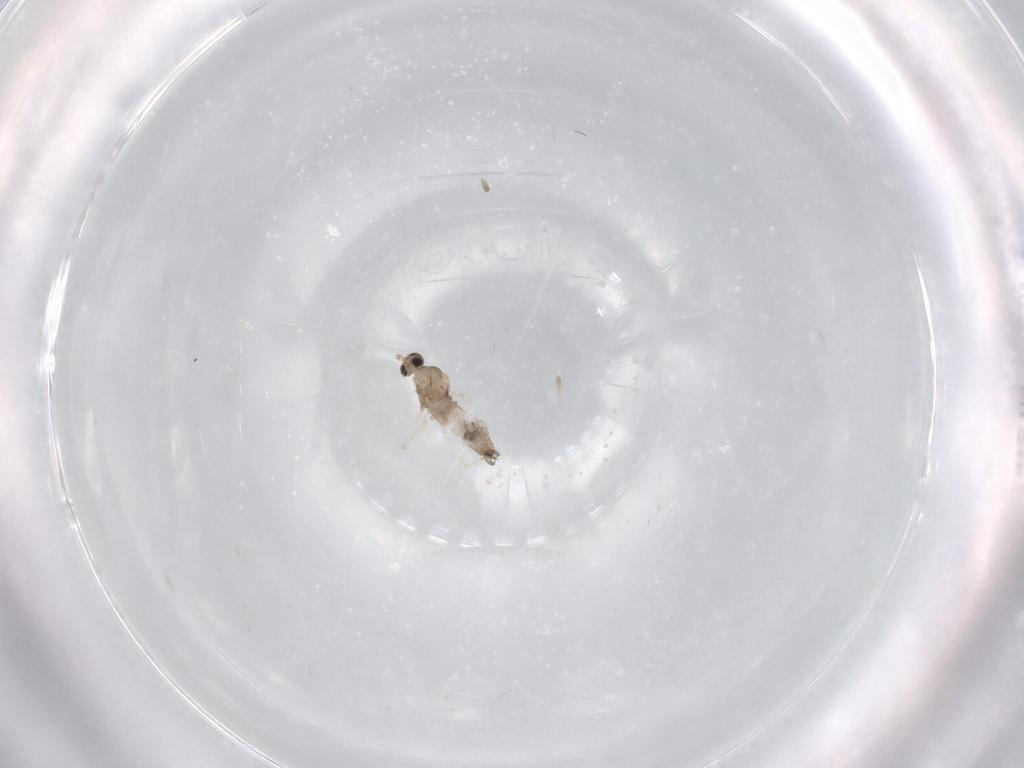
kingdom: Animalia
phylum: Arthropoda
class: Insecta
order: Diptera
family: Cecidomyiidae
